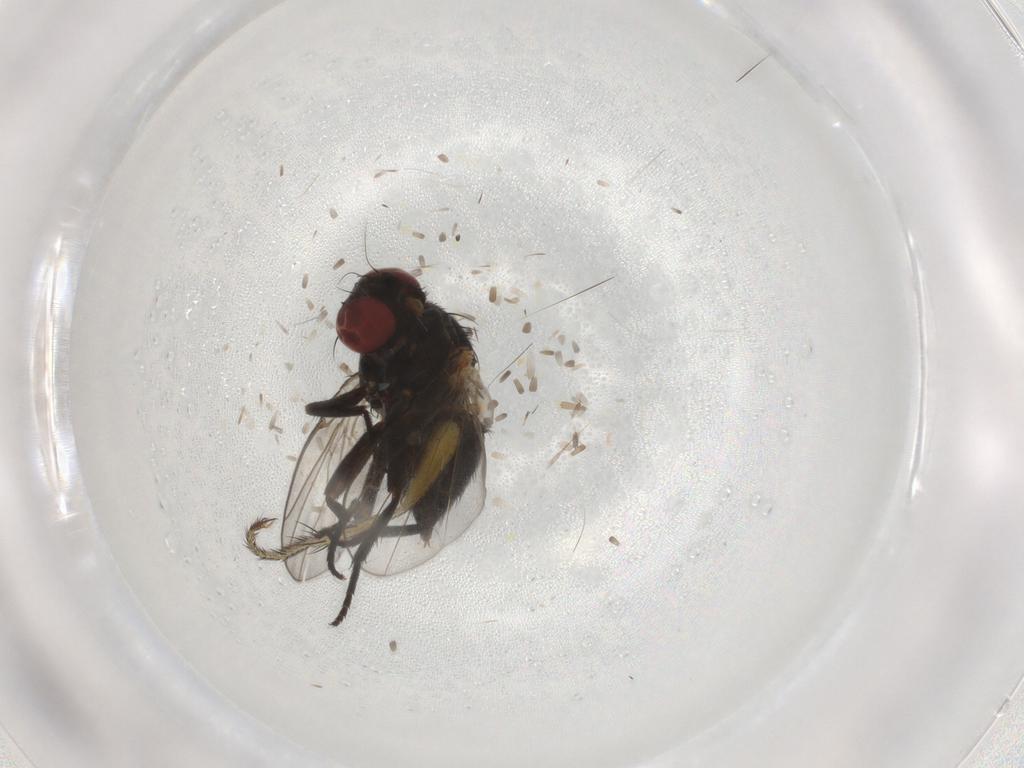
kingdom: Animalia
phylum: Arthropoda
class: Insecta
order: Diptera
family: Agromyzidae
